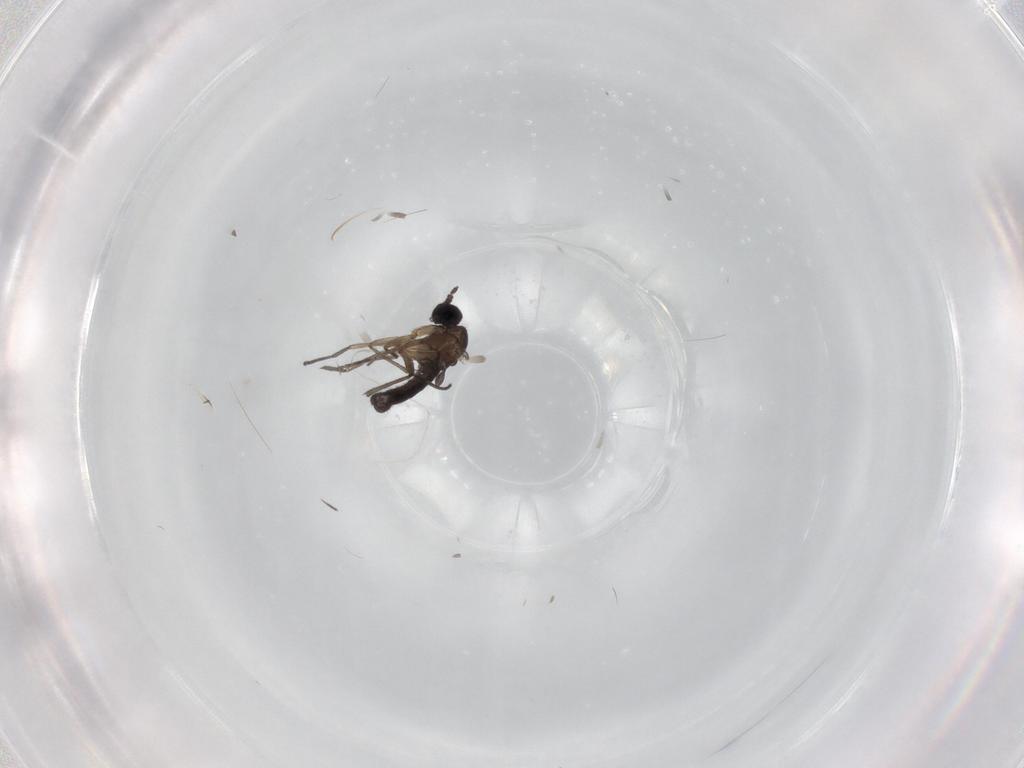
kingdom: Animalia
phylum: Arthropoda
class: Insecta
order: Diptera
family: Sciaridae
